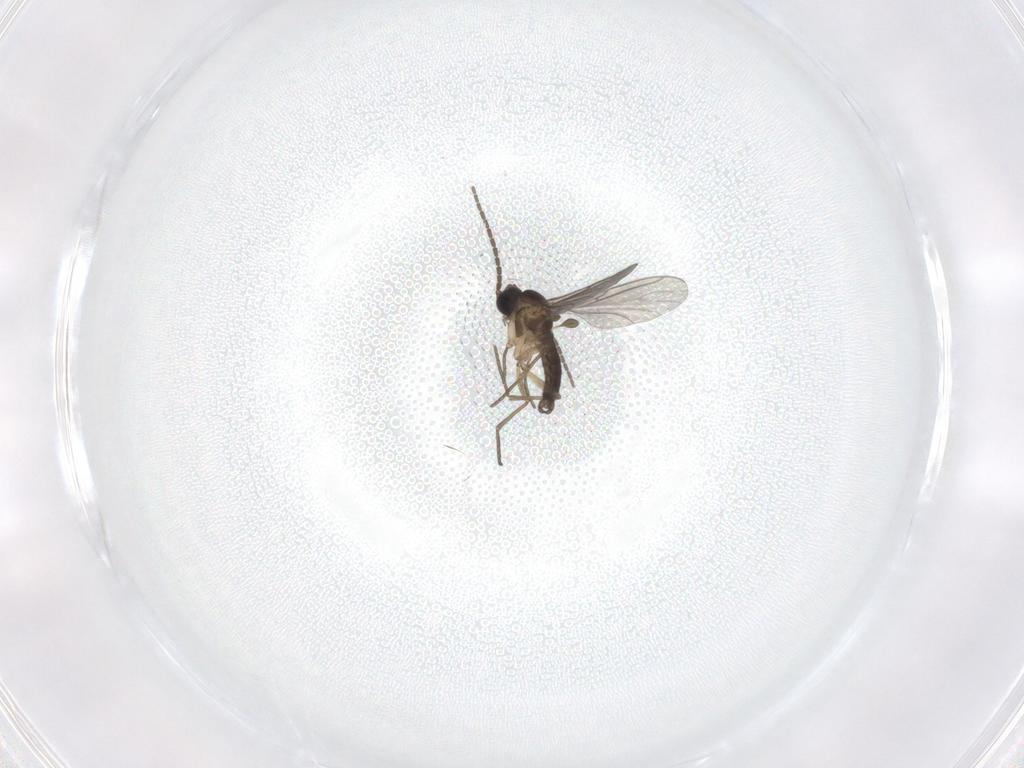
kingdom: Animalia
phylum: Arthropoda
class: Insecta
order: Diptera
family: Sciaridae
